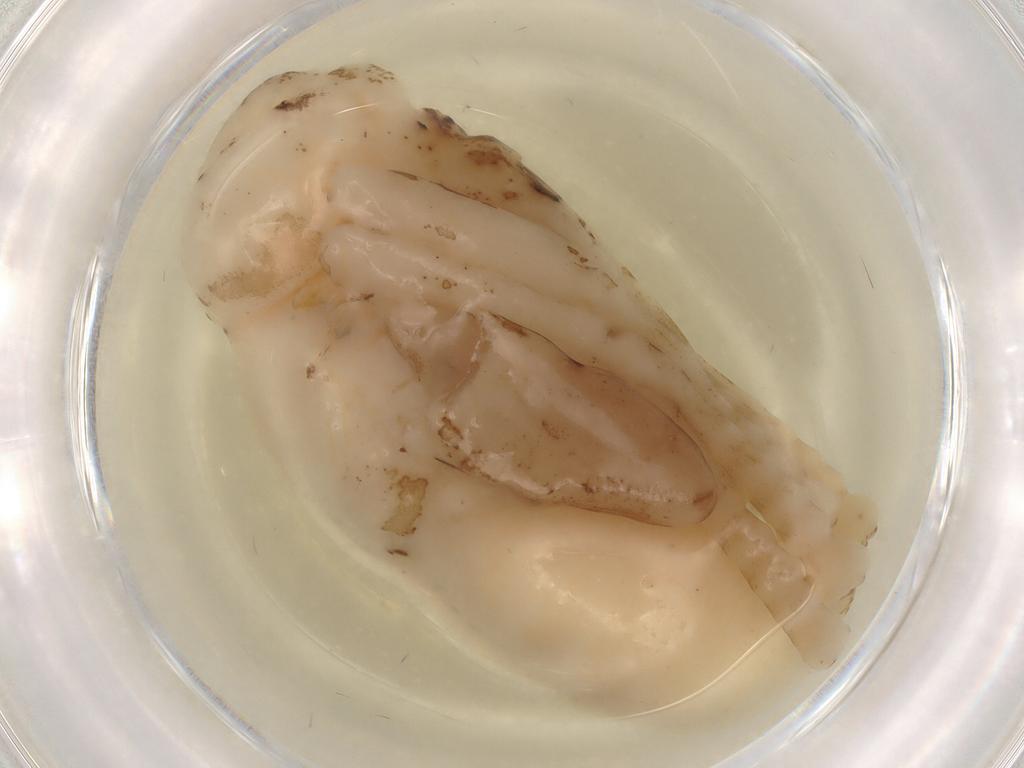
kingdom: Animalia
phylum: Arthropoda
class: Insecta
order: Diptera
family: Anthomyiidae
